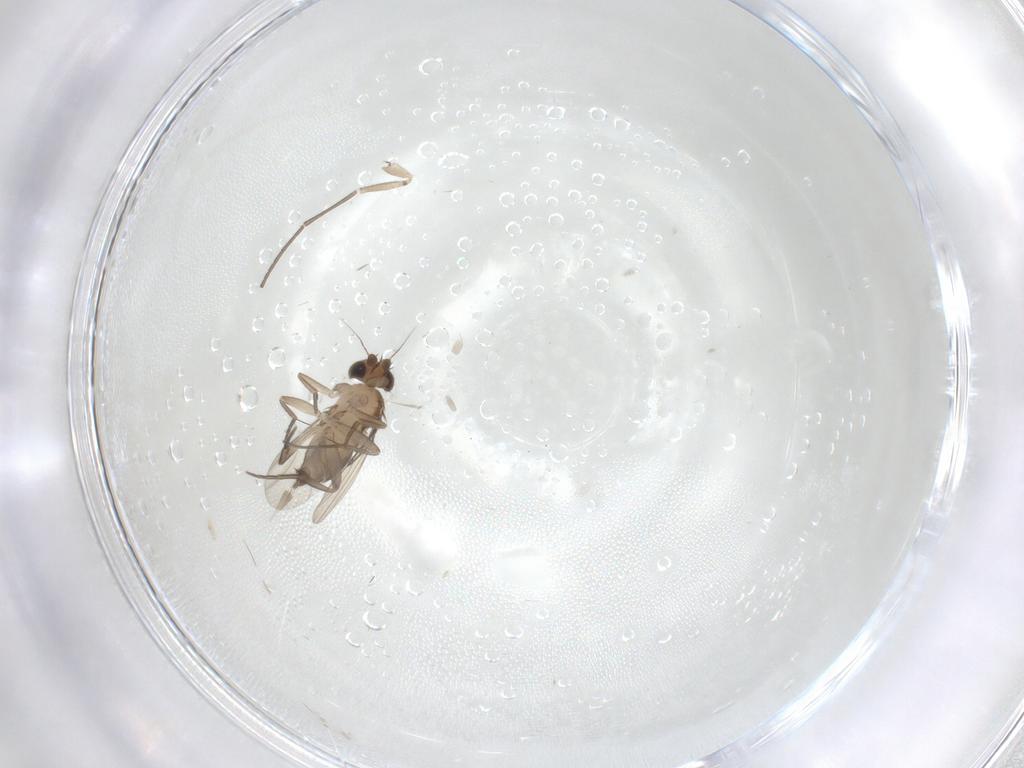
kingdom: Animalia
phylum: Arthropoda
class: Insecta
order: Diptera
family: Phoridae
